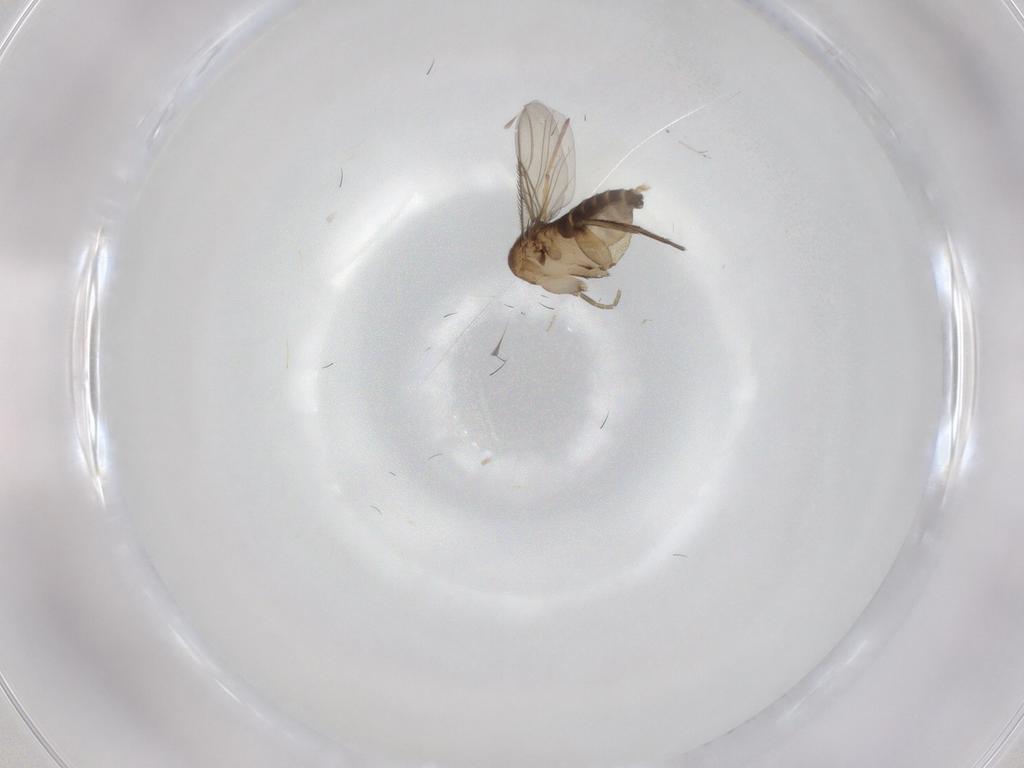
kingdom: Animalia
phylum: Arthropoda
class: Insecta
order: Diptera
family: Phoridae
